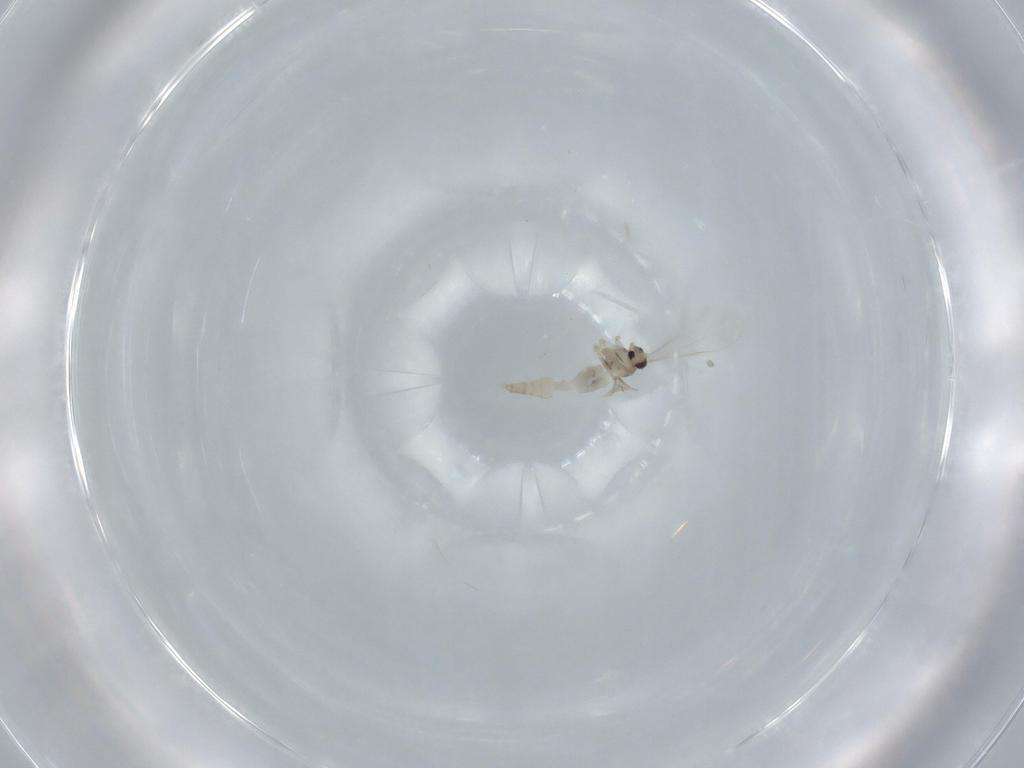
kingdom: Animalia
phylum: Arthropoda
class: Insecta
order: Diptera
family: Cecidomyiidae
